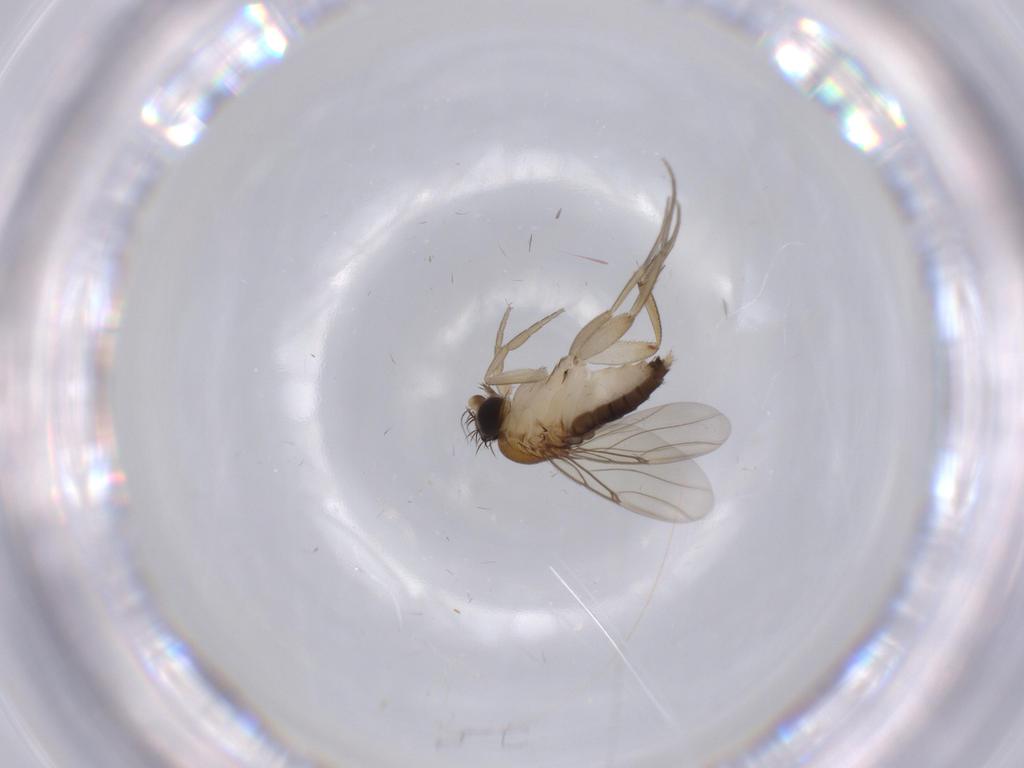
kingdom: Animalia
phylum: Arthropoda
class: Insecta
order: Diptera
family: Phoridae
